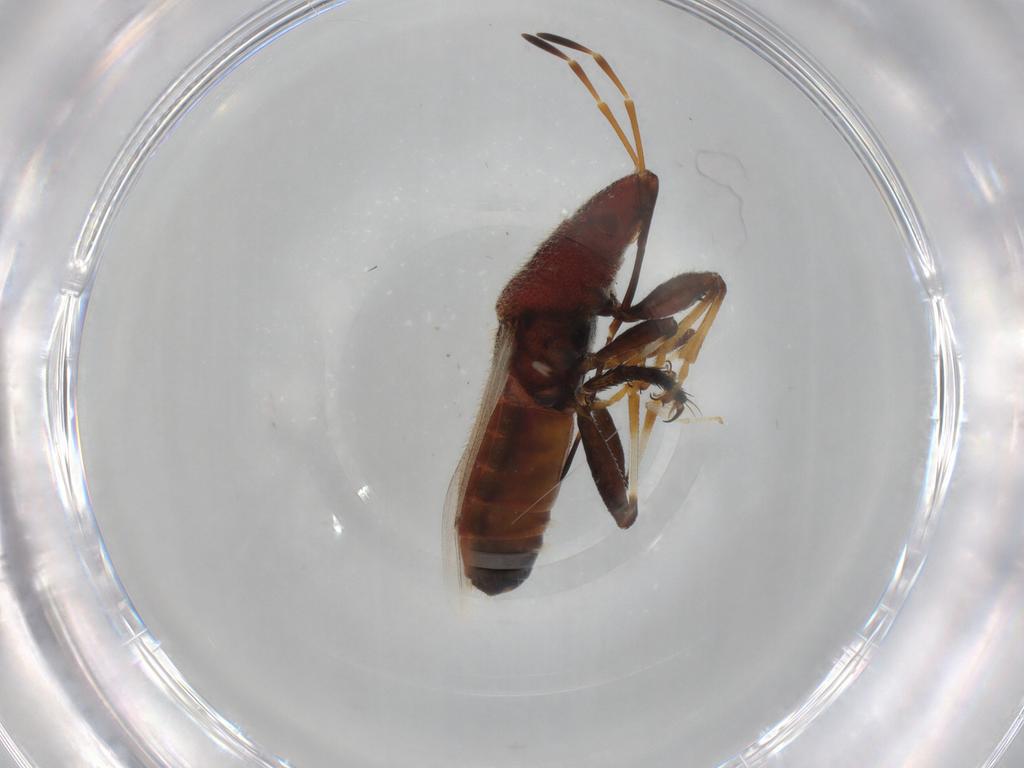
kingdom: Animalia
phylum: Arthropoda
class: Insecta
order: Hemiptera
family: Oxycarenidae
